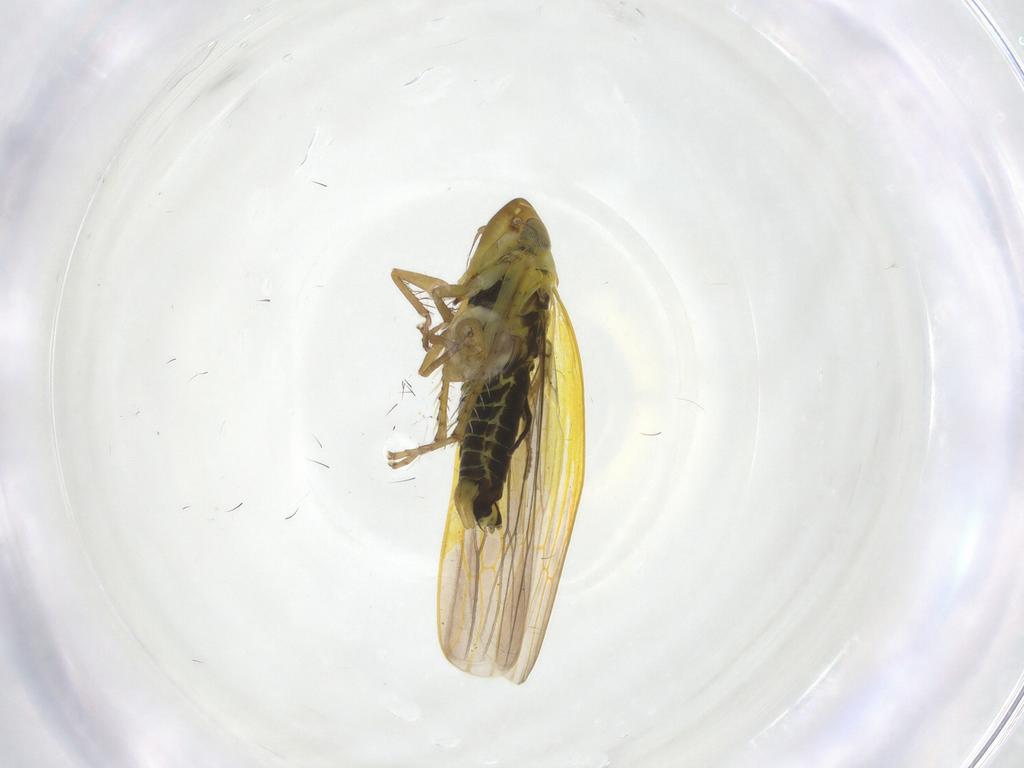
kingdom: Animalia
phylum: Arthropoda
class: Insecta
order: Hemiptera
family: Cicadellidae
